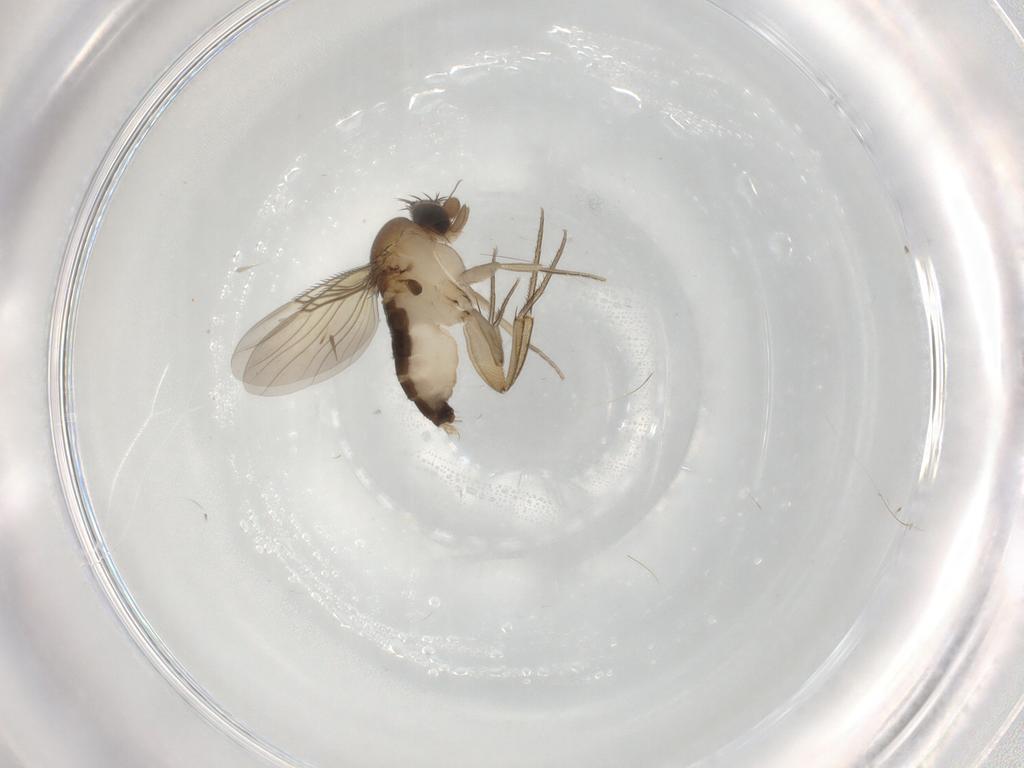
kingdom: Animalia
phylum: Arthropoda
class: Insecta
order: Diptera
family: Phoridae
